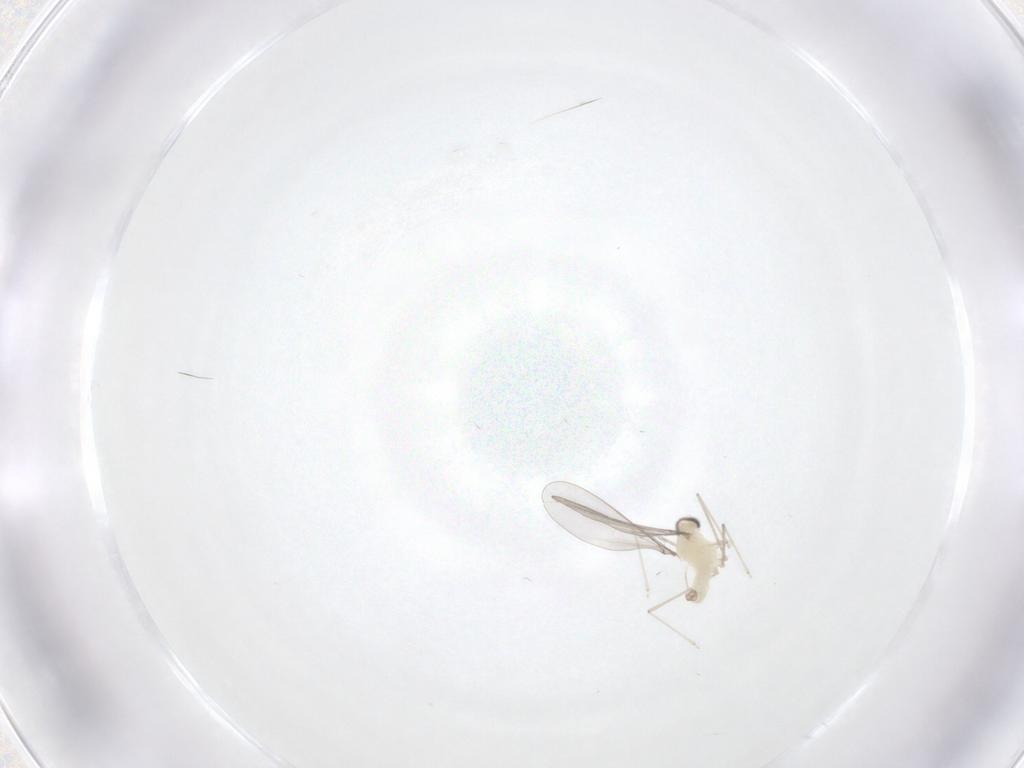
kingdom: Animalia
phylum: Arthropoda
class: Insecta
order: Diptera
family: Cecidomyiidae
